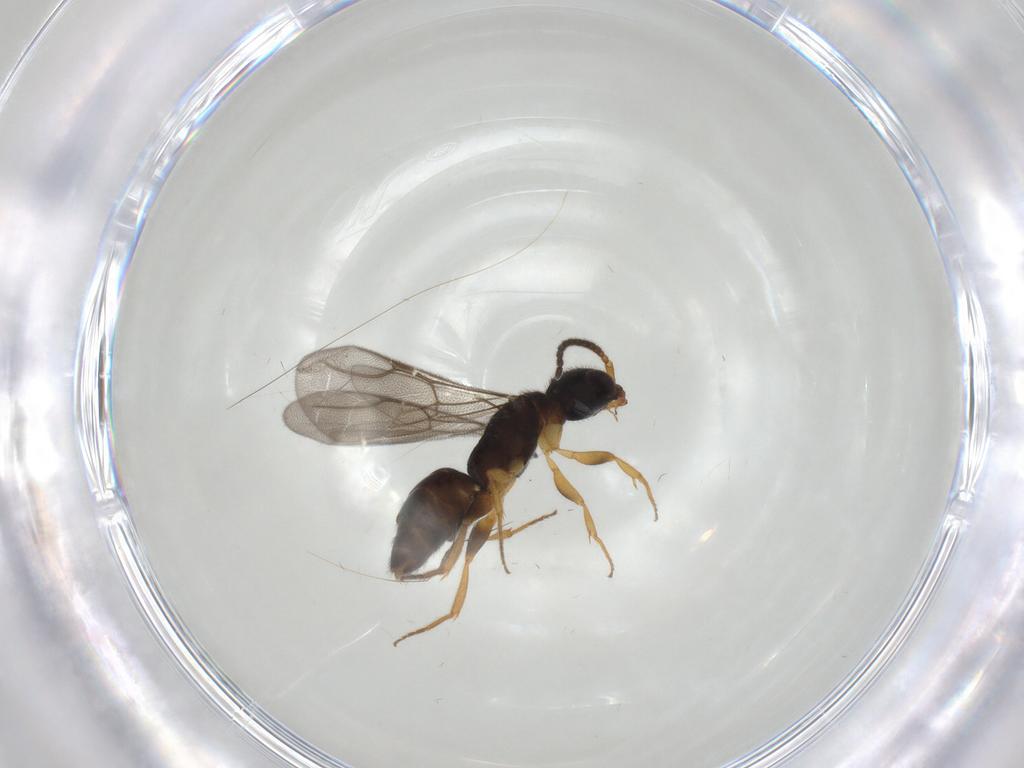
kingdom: Animalia
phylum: Arthropoda
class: Insecta
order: Hymenoptera
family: Bethylidae
